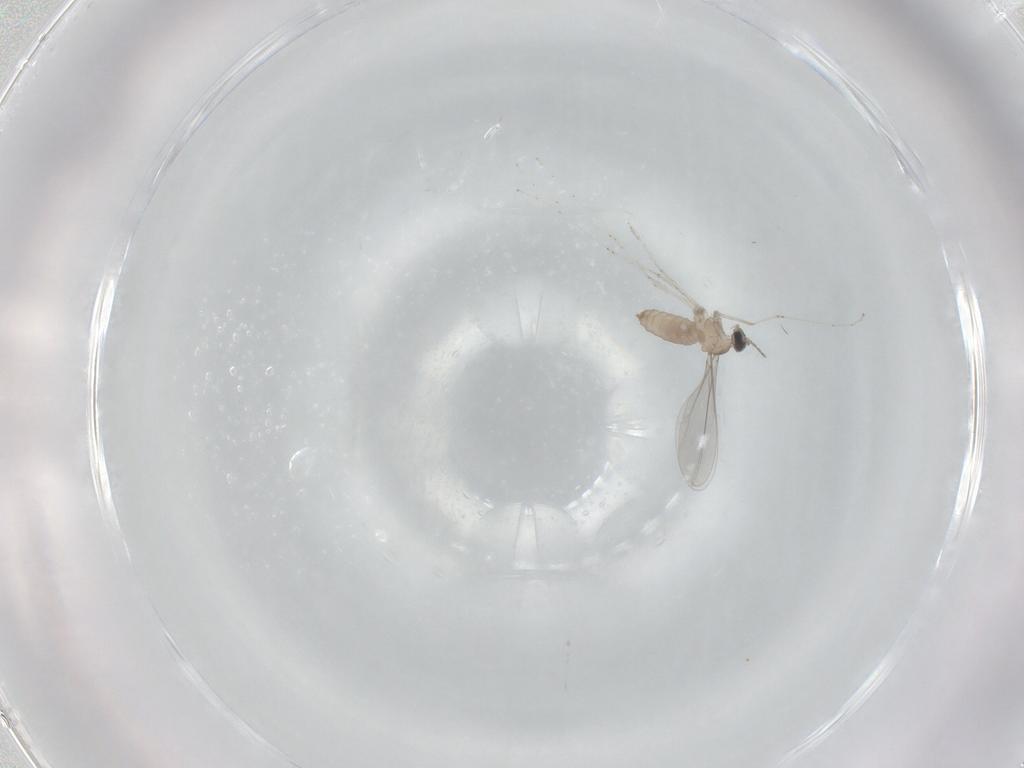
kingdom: Animalia
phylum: Arthropoda
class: Insecta
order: Diptera
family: Cecidomyiidae
